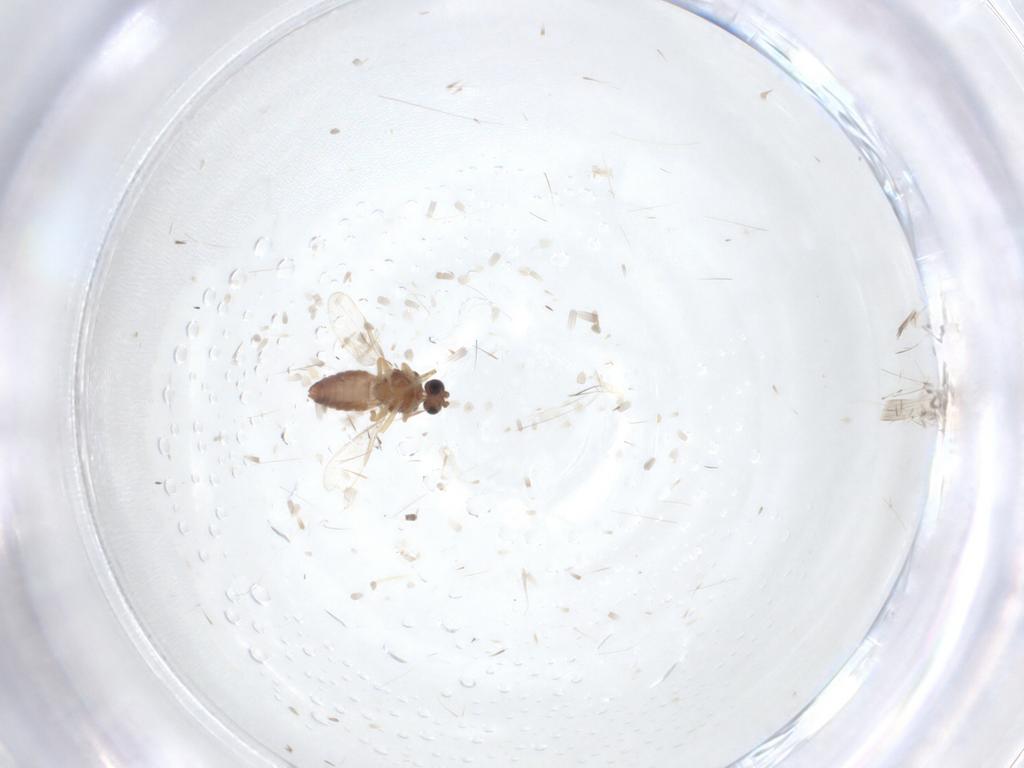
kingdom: Animalia
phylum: Arthropoda
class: Insecta
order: Diptera
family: Ceratopogonidae
